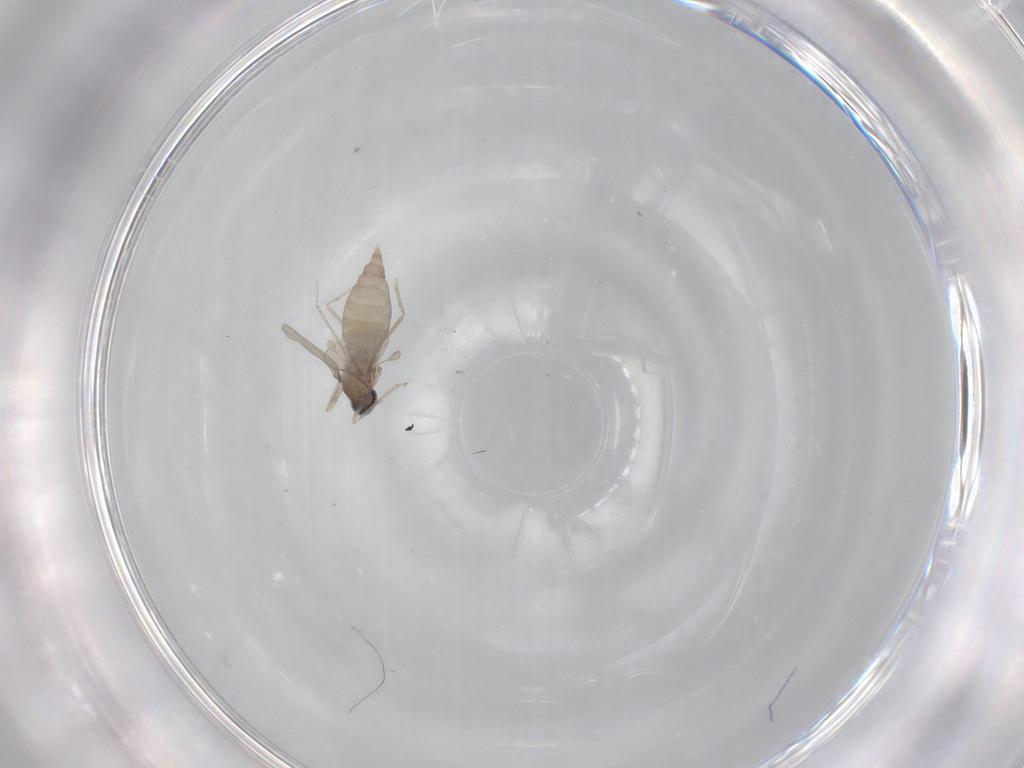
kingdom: Animalia
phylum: Arthropoda
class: Insecta
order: Diptera
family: Cecidomyiidae
